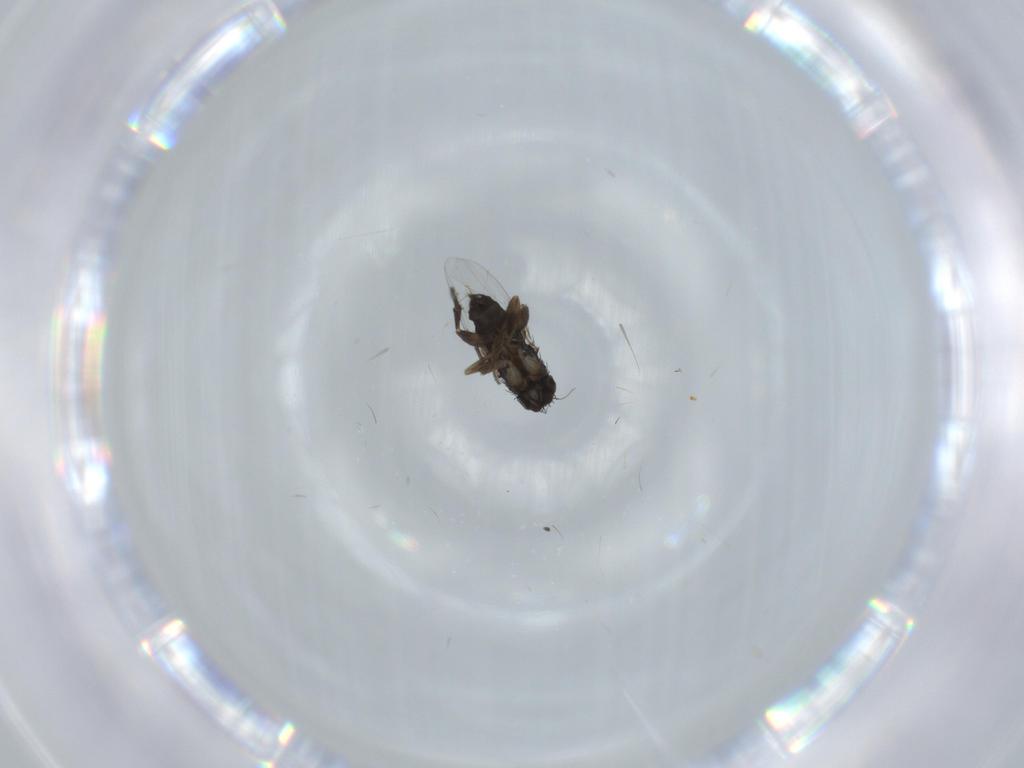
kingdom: Animalia
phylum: Arthropoda
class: Insecta
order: Diptera
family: Phoridae
